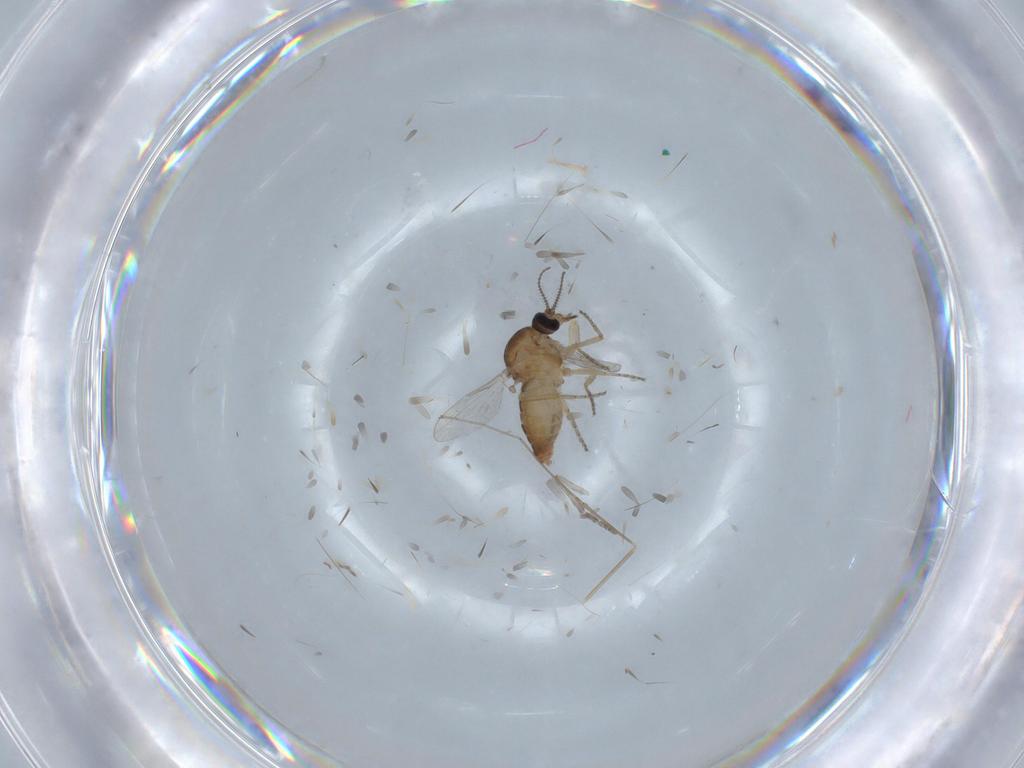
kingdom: Animalia
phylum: Arthropoda
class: Insecta
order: Diptera
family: Ceratopogonidae
